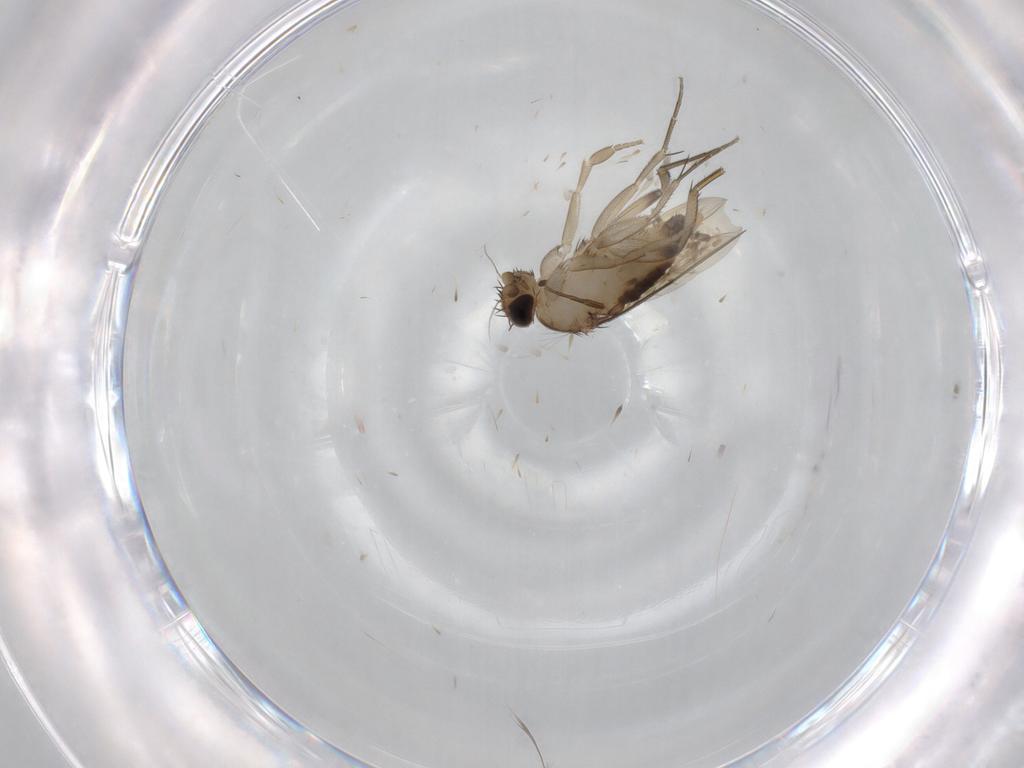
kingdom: Animalia
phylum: Arthropoda
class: Insecta
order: Diptera
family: Phoridae
